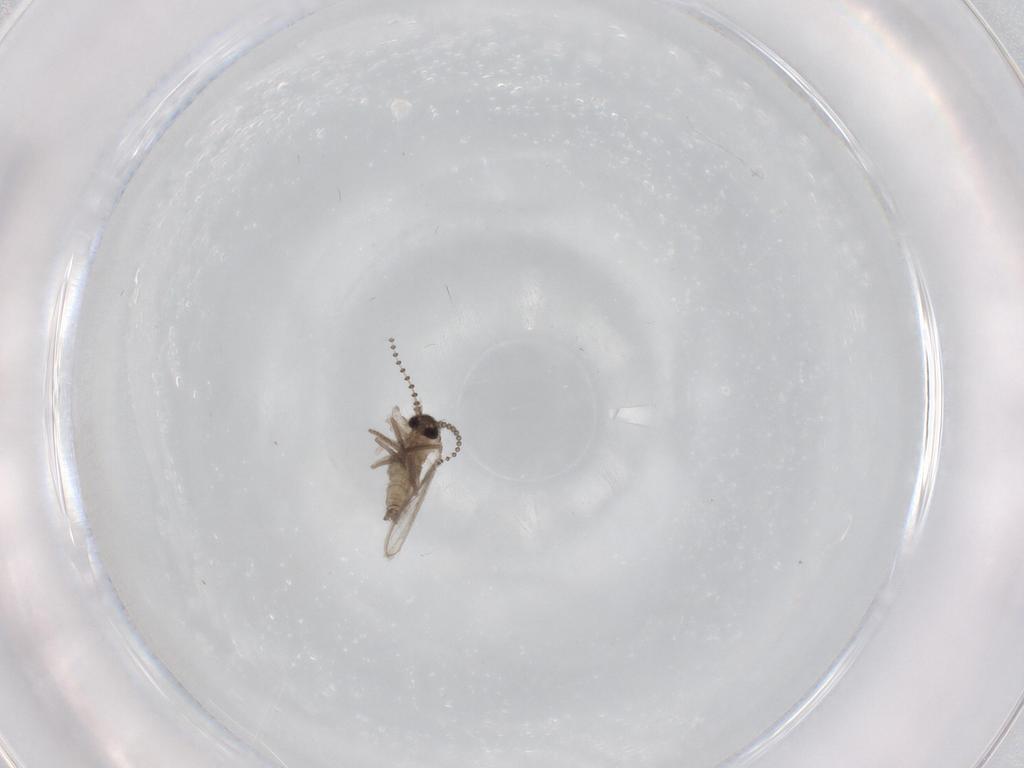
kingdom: Animalia
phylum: Arthropoda
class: Insecta
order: Diptera
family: Psychodidae
